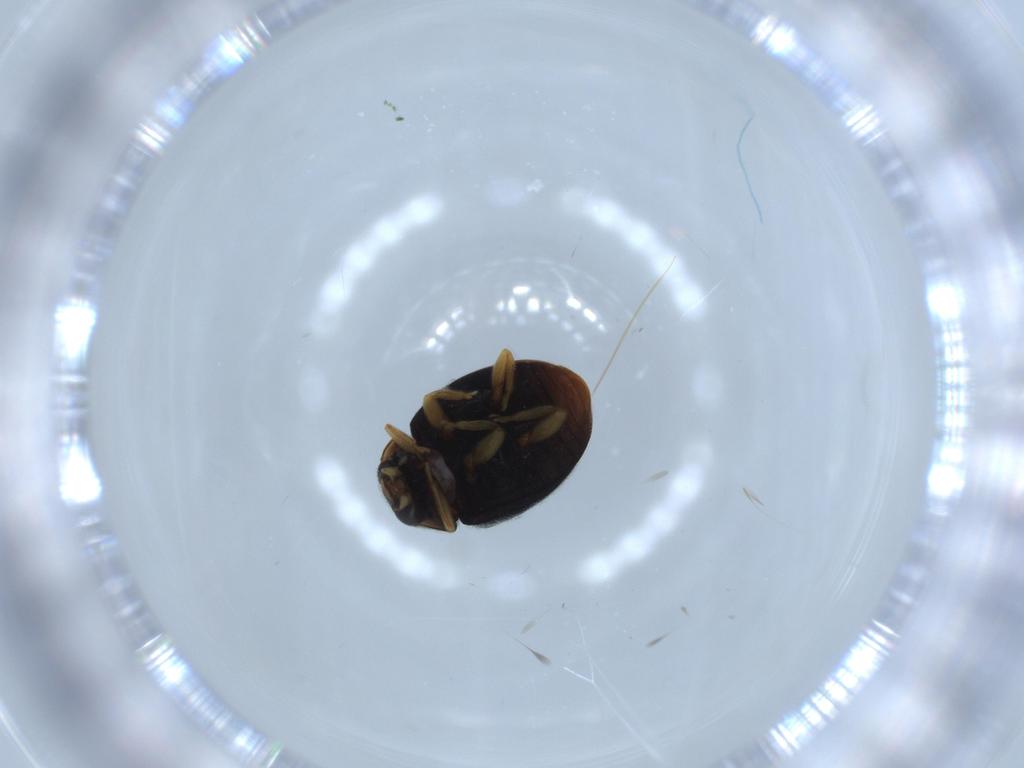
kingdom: Animalia
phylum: Arthropoda
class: Insecta
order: Coleoptera
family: Coccinellidae
